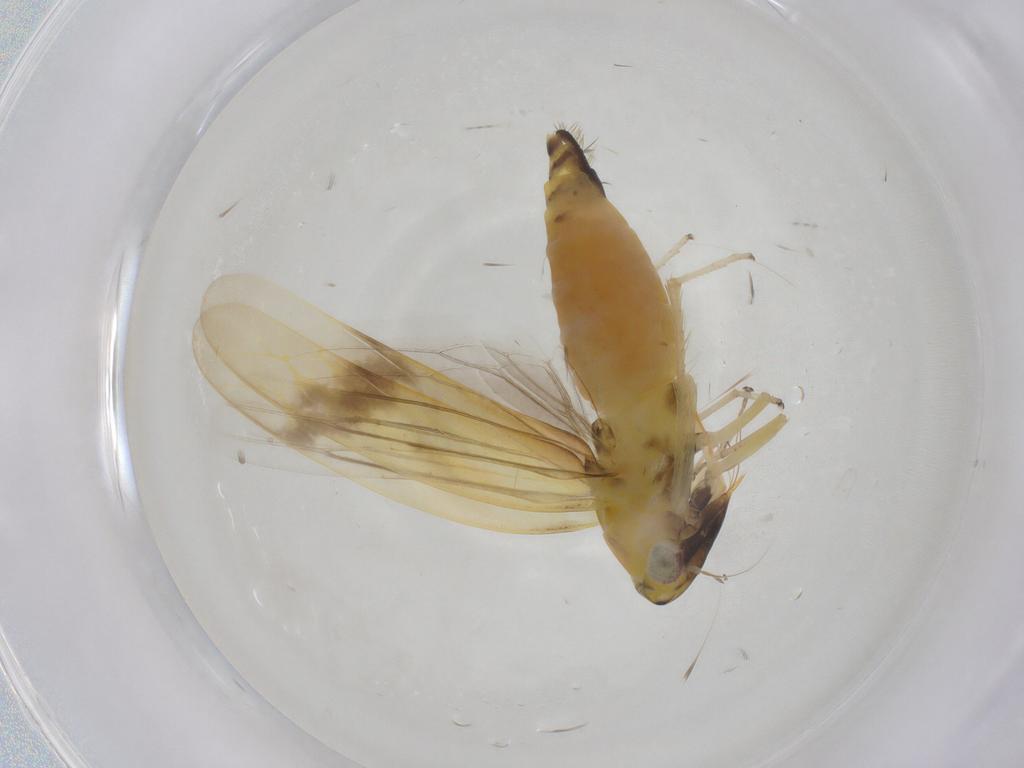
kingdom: Animalia
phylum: Arthropoda
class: Insecta
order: Hemiptera
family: Cicadellidae
